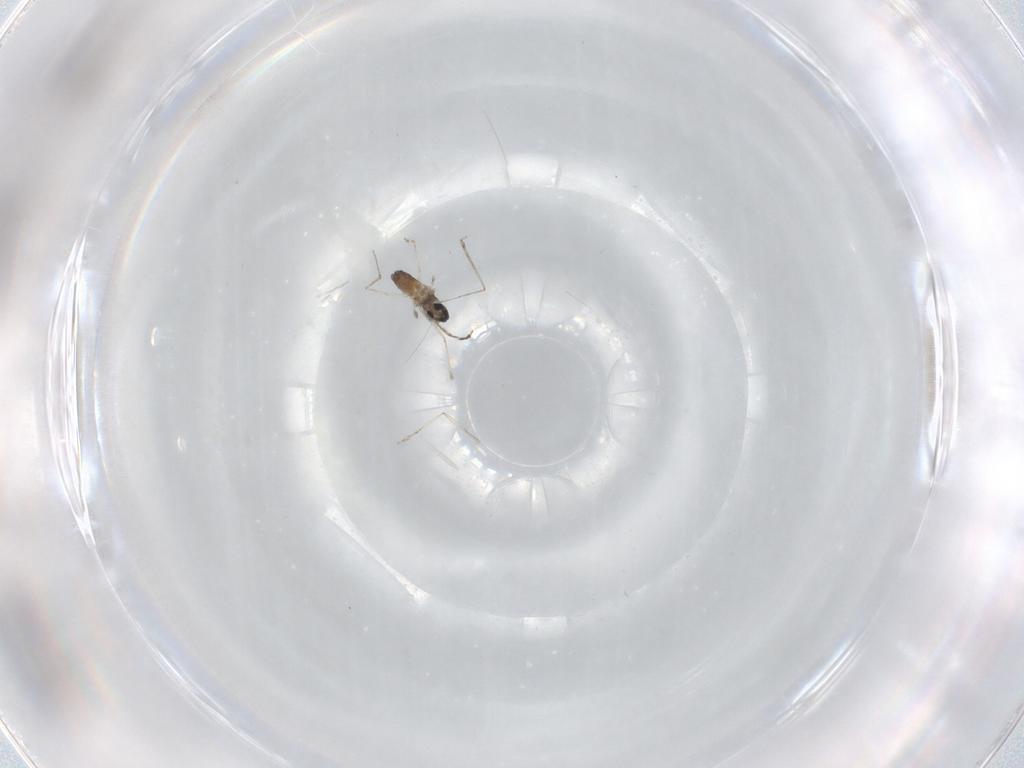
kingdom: Animalia
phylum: Arthropoda
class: Insecta
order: Diptera
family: Cecidomyiidae
